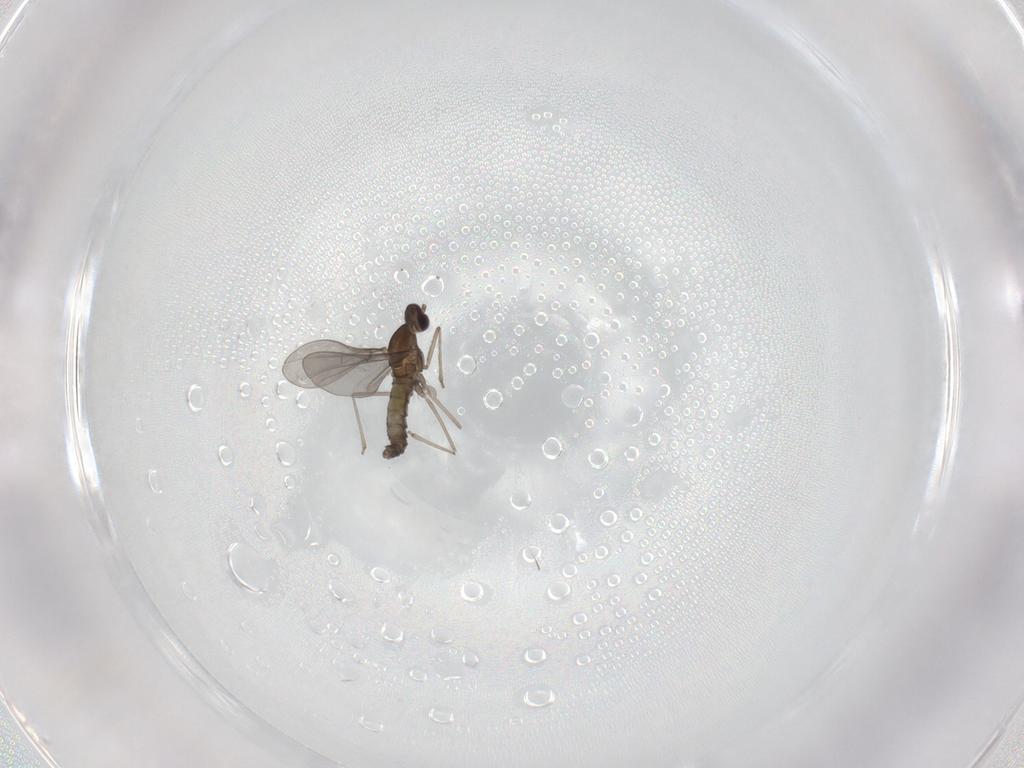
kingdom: Animalia
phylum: Arthropoda
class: Insecta
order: Diptera
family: Cecidomyiidae
